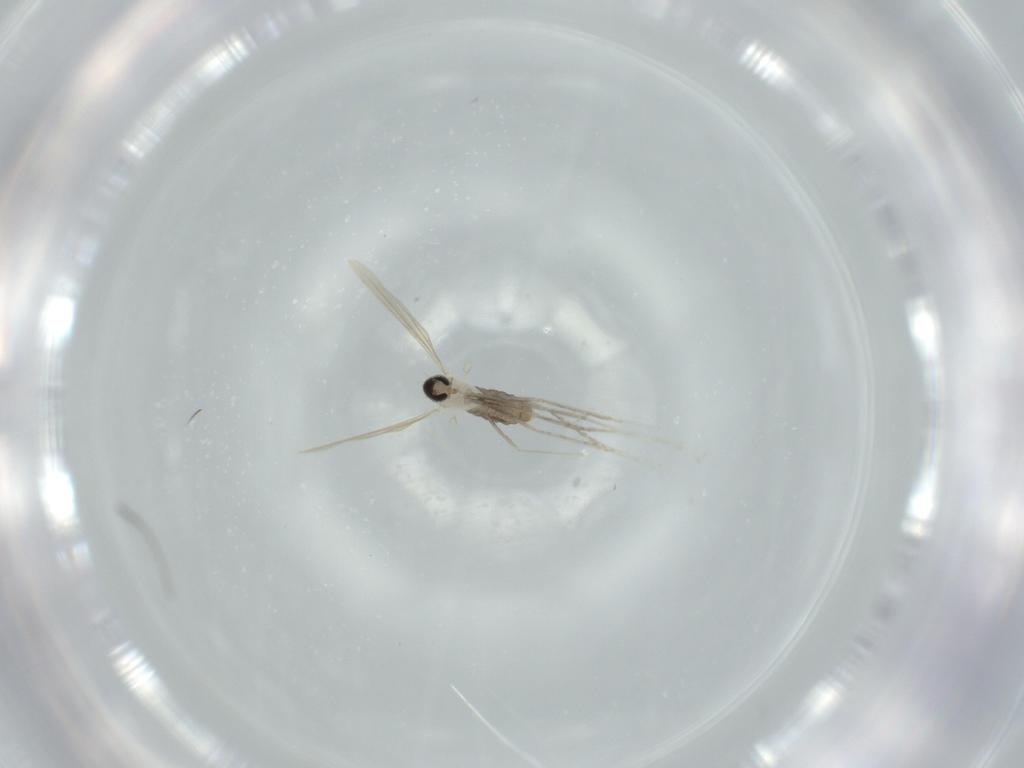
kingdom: Animalia
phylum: Arthropoda
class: Insecta
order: Diptera
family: Cecidomyiidae
